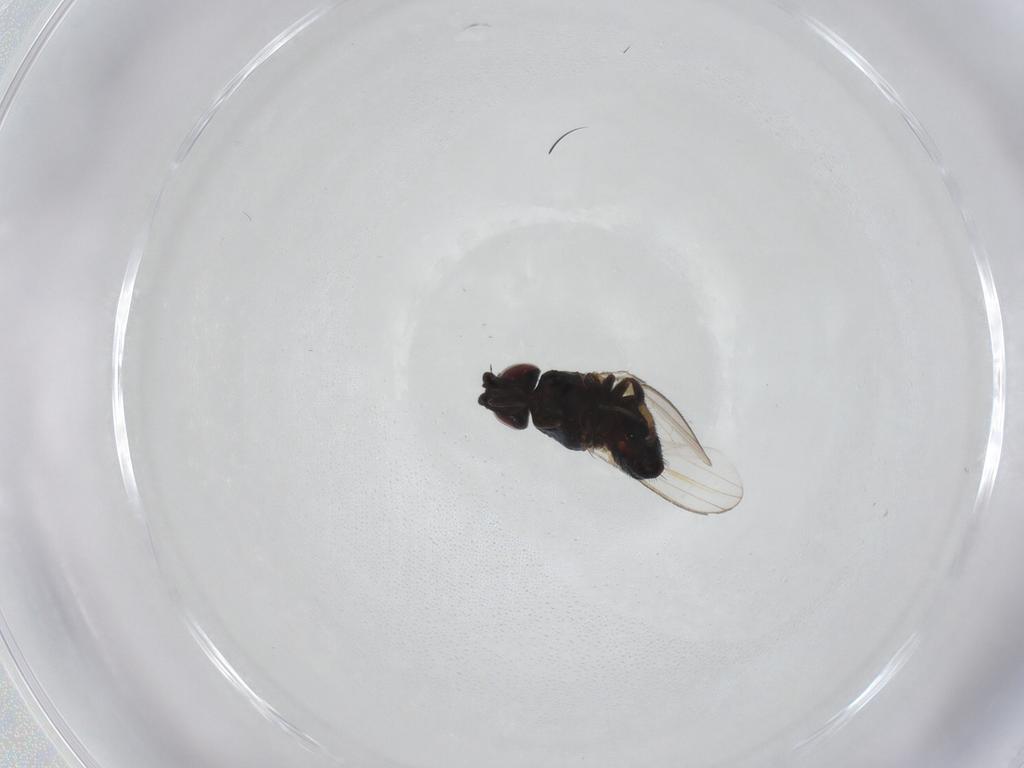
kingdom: Animalia
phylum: Arthropoda
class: Insecta
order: Diptera
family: Milichiidae
